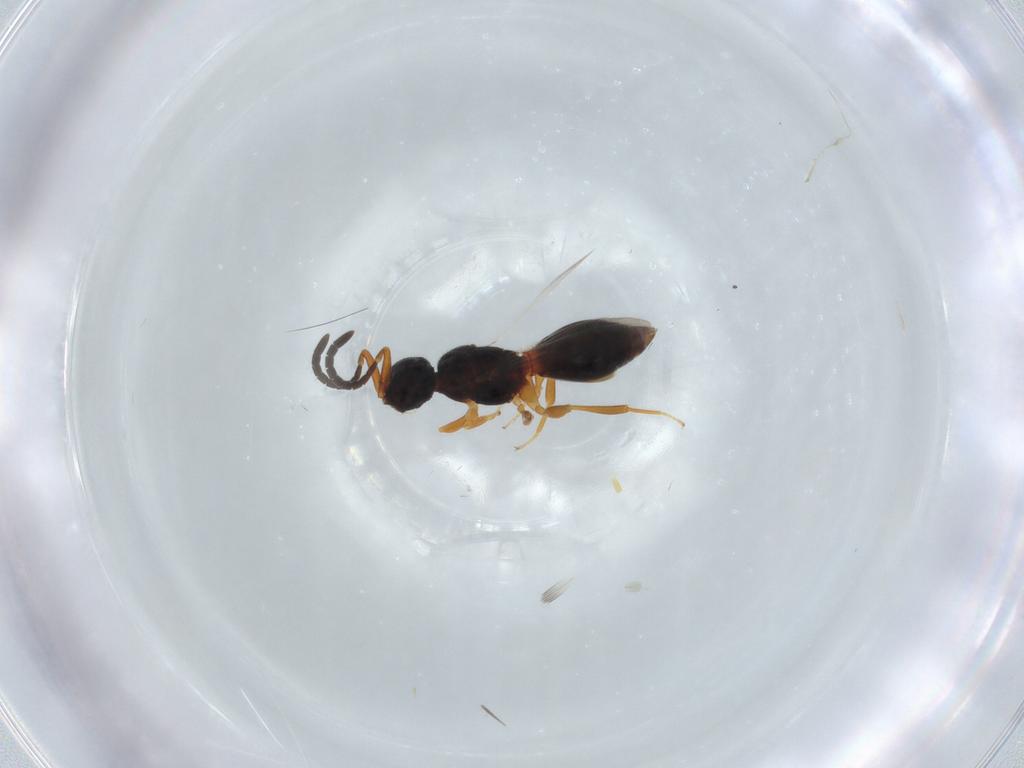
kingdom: Animalia
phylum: Arthropoda
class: Insecta
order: Hymenoptera
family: Megaspilidae
